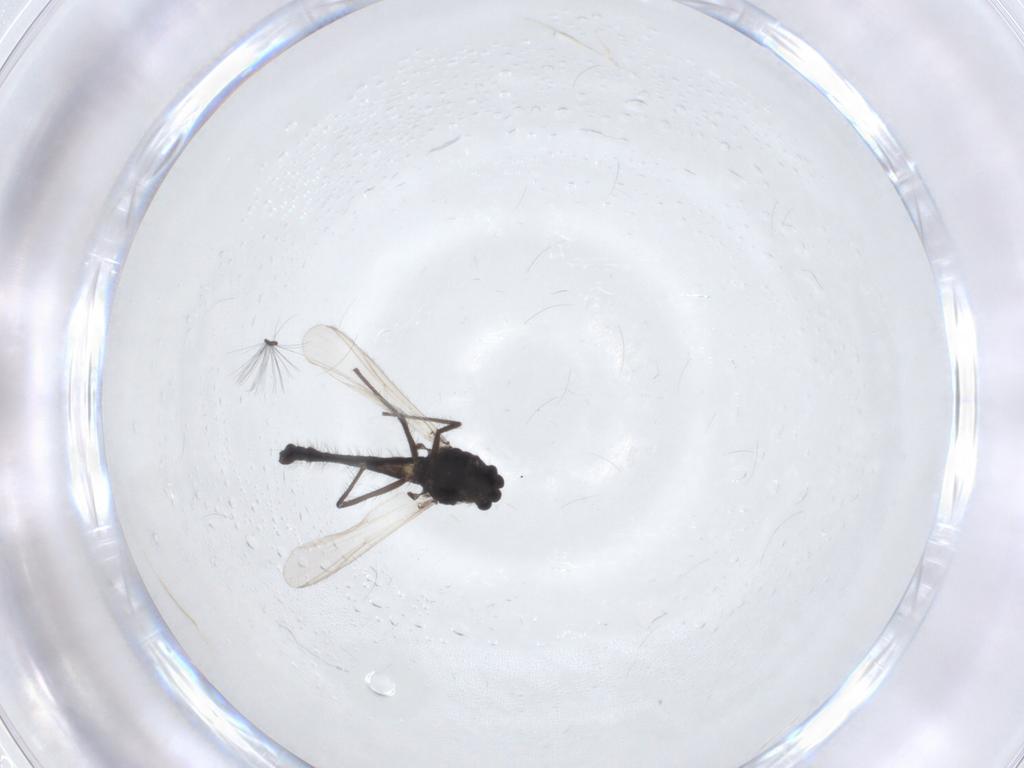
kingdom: Animalia
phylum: Arthropoda
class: Insecta
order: Diptera
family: Chironomidae
